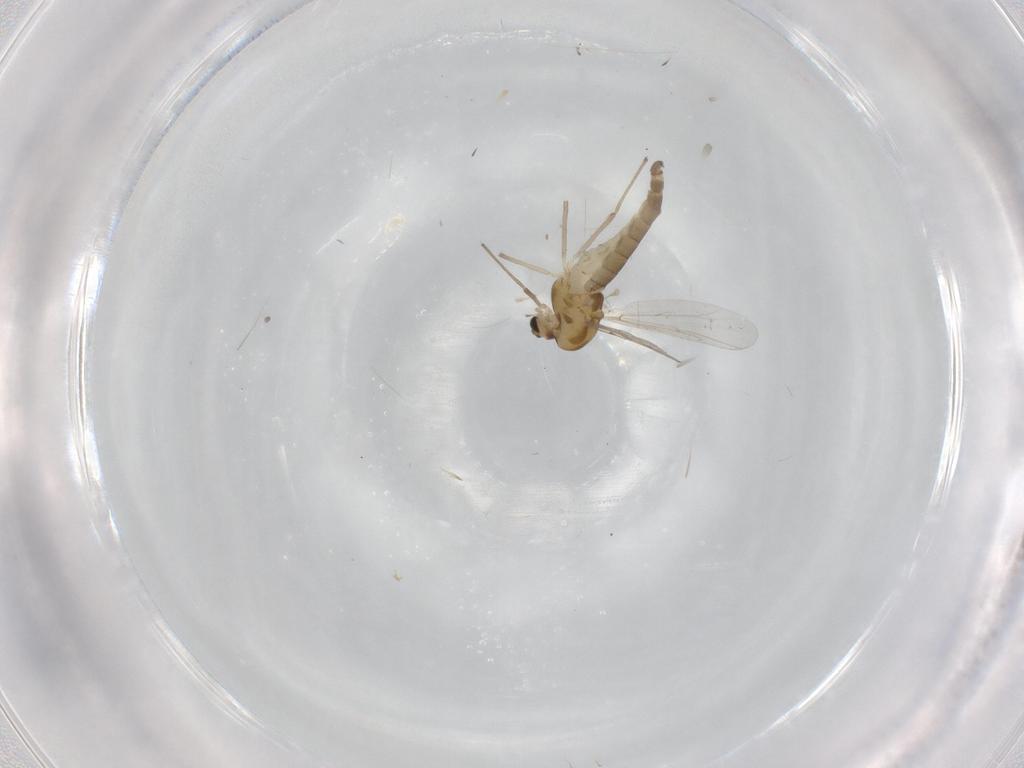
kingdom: Animalia
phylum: Arthropoda
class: Insecta
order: Diptera
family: Chironomidae
